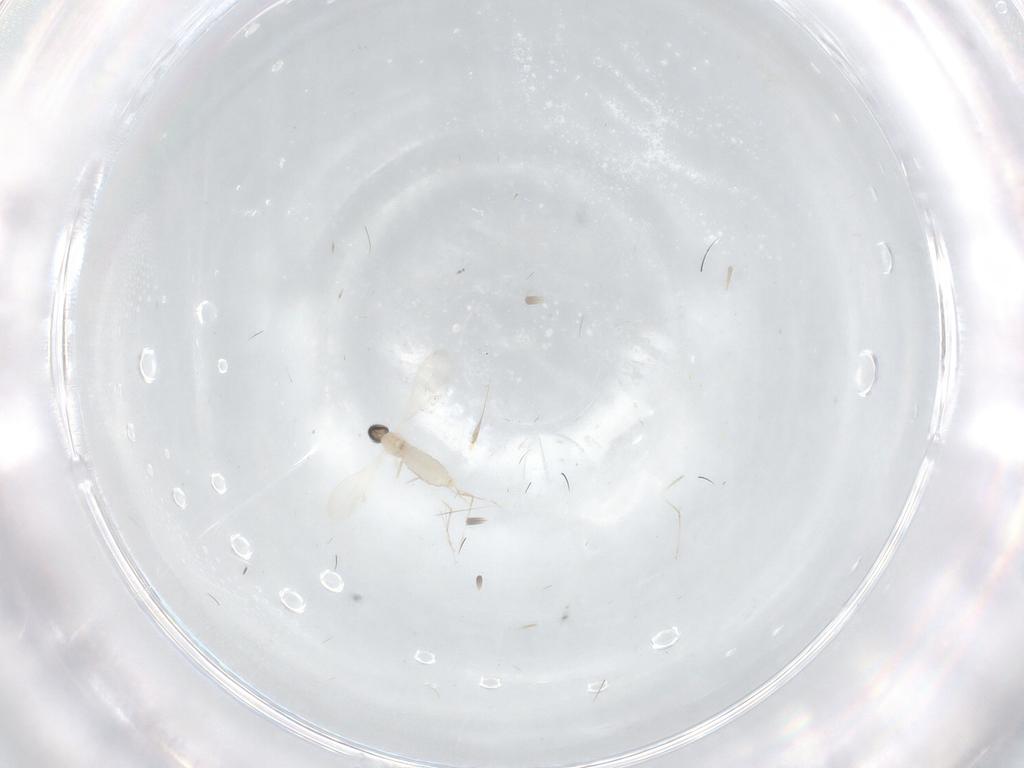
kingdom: Animalia
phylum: Arthropoda
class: Insecta
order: Diptera
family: Cecidomyiidae
